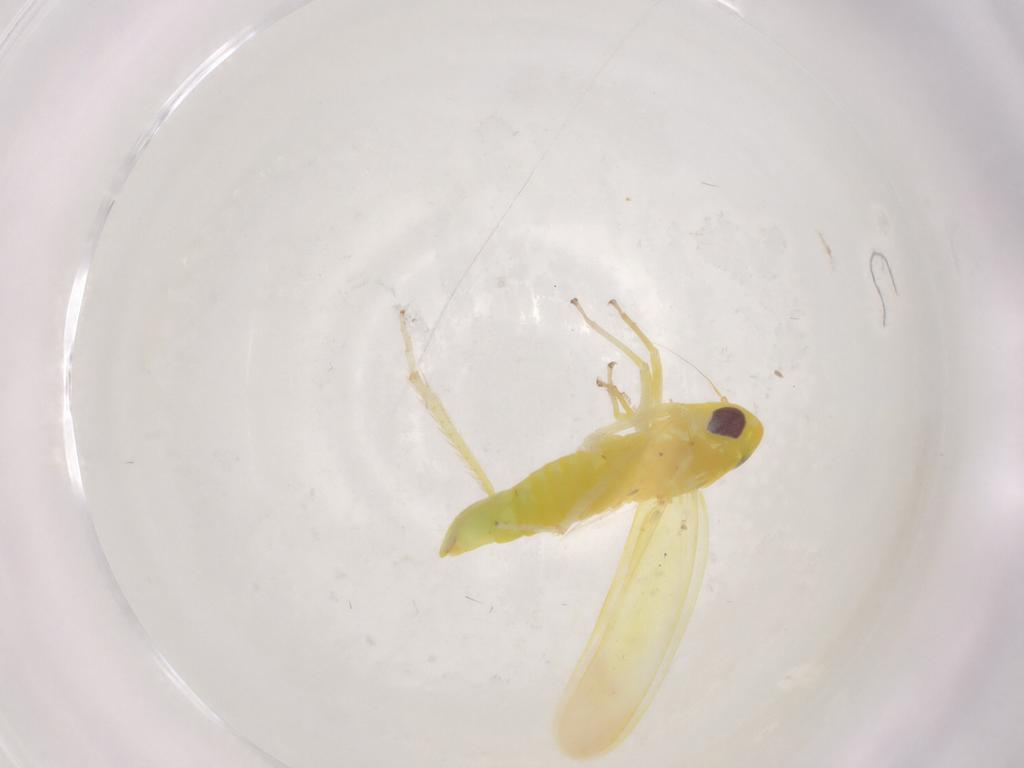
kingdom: Animalia
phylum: Arthropoda
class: Insecta
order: Hemiptera
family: Cicadellidae
